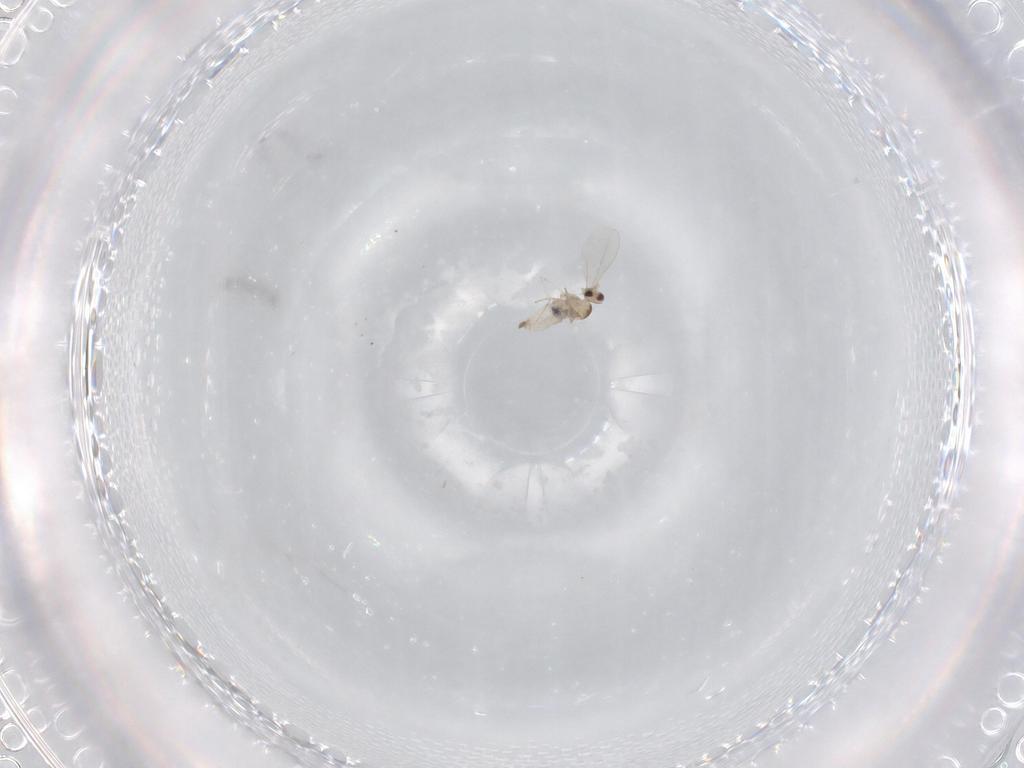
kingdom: Animalia
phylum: Arthropoda
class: Insecta
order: Diptera
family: Cecidomyiidae
